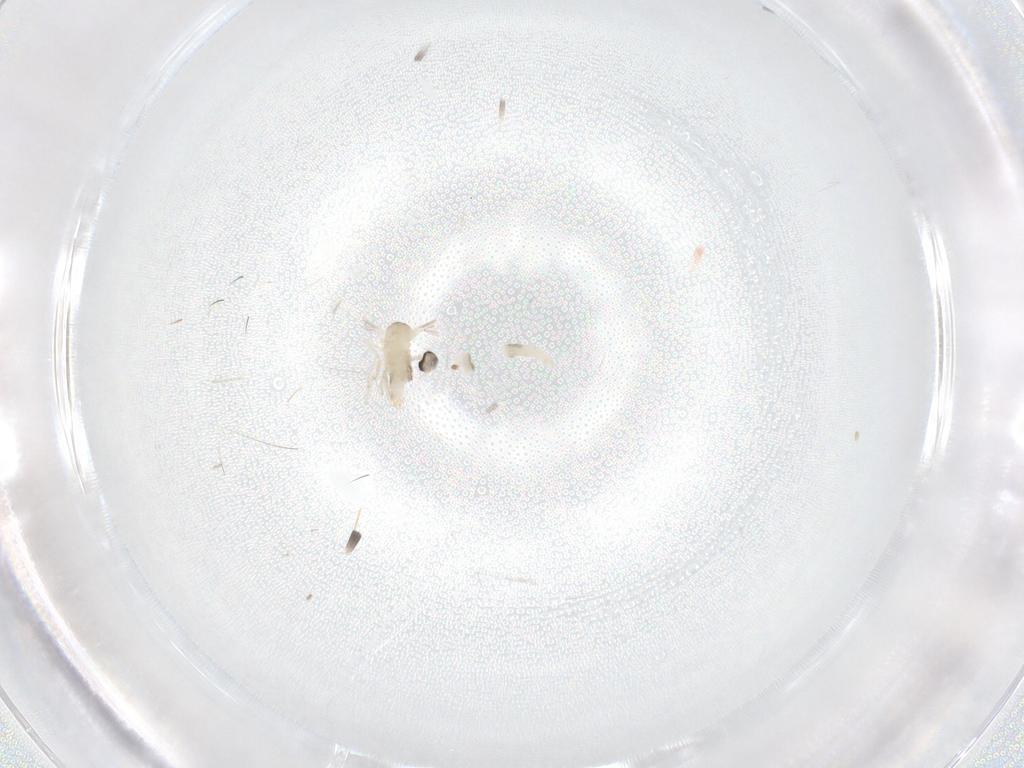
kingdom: Animalia
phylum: Arthropoda
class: Insecta
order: Diptera
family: Cecidomyiidae
